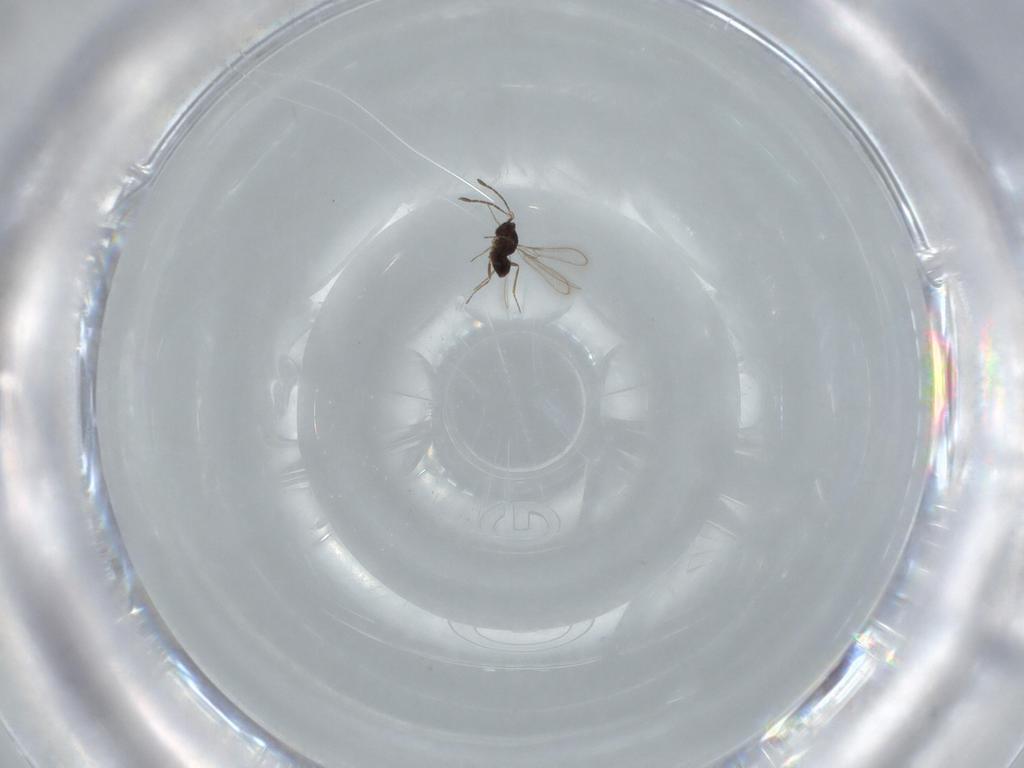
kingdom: Animalia
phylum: Arthropoda
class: Insecta
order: Hymenoptera
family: Mymaridae
